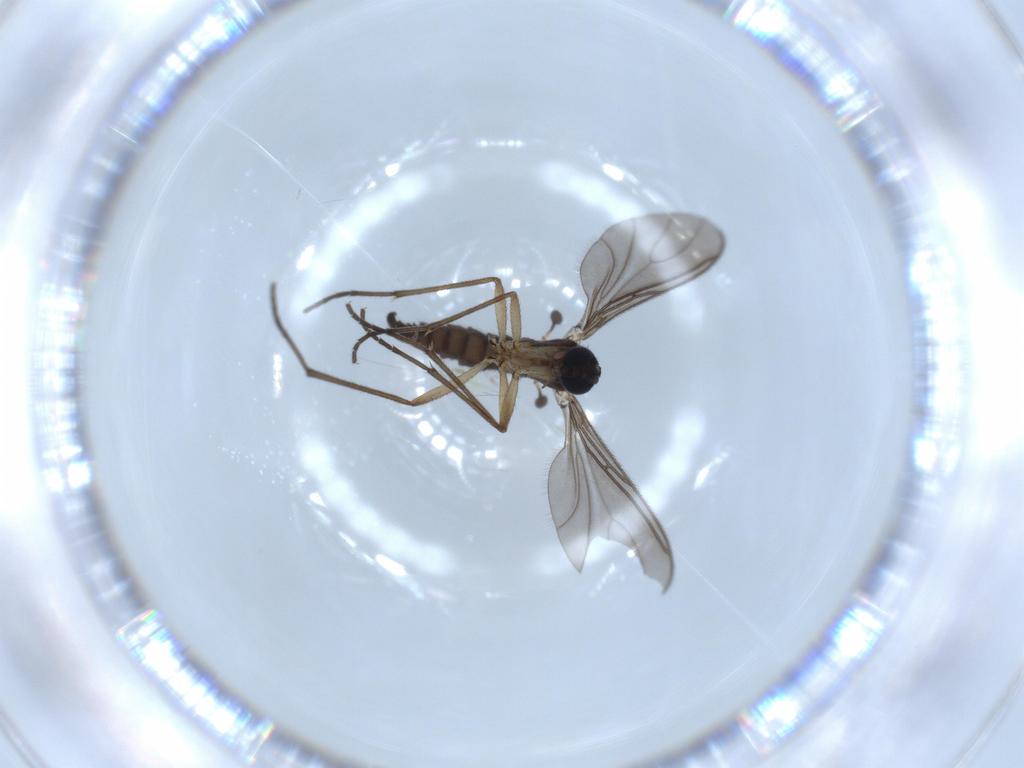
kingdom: Animalia
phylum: Arthropoda
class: Insecta
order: Diptera
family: Sciaridae
